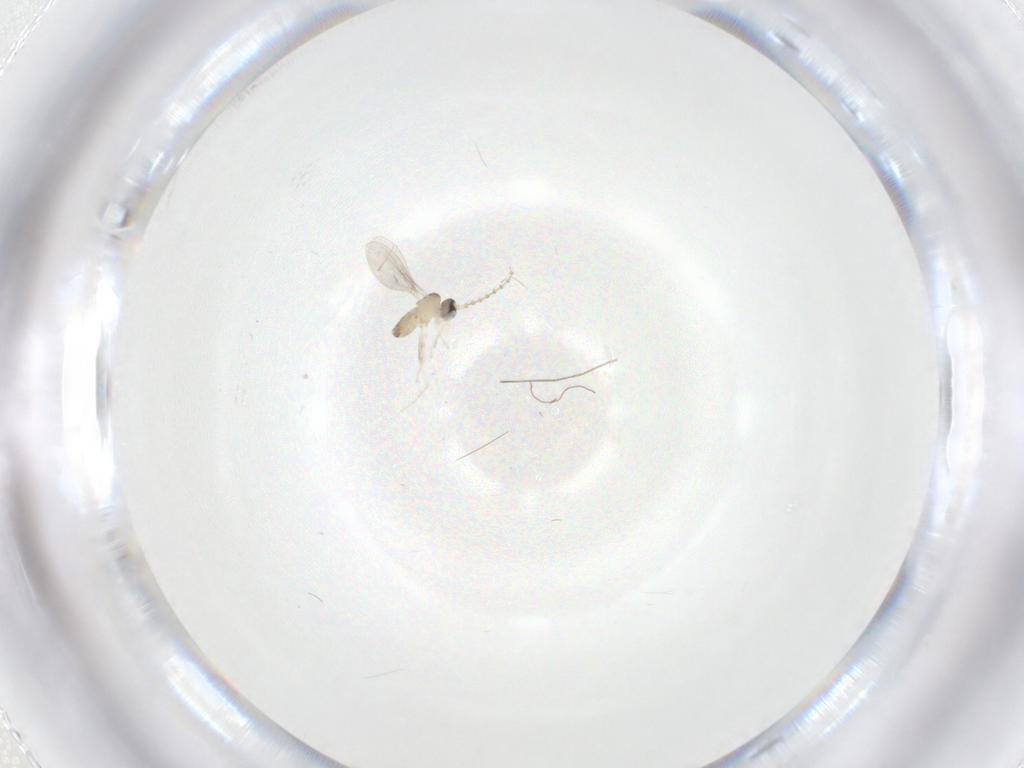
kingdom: Animalia
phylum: Arthropoda
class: Insecta
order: Diptera
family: Cecidomyiidae
